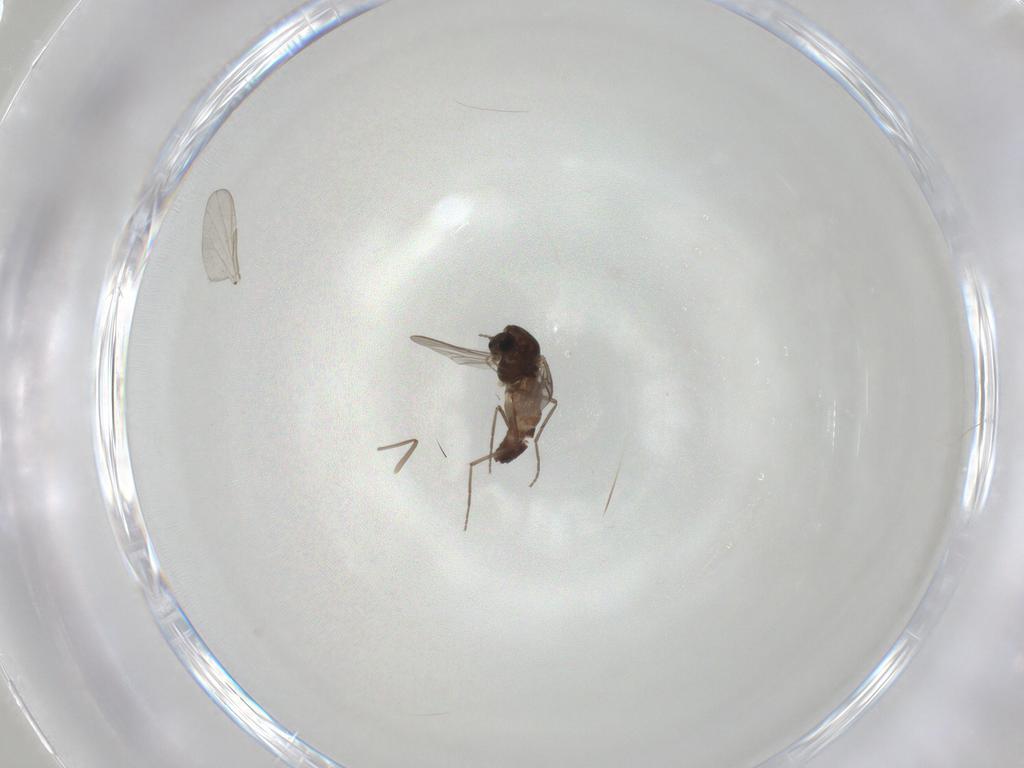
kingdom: Animalia
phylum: Arthropoda
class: Insecta
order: Diptera
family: Chironomidae
